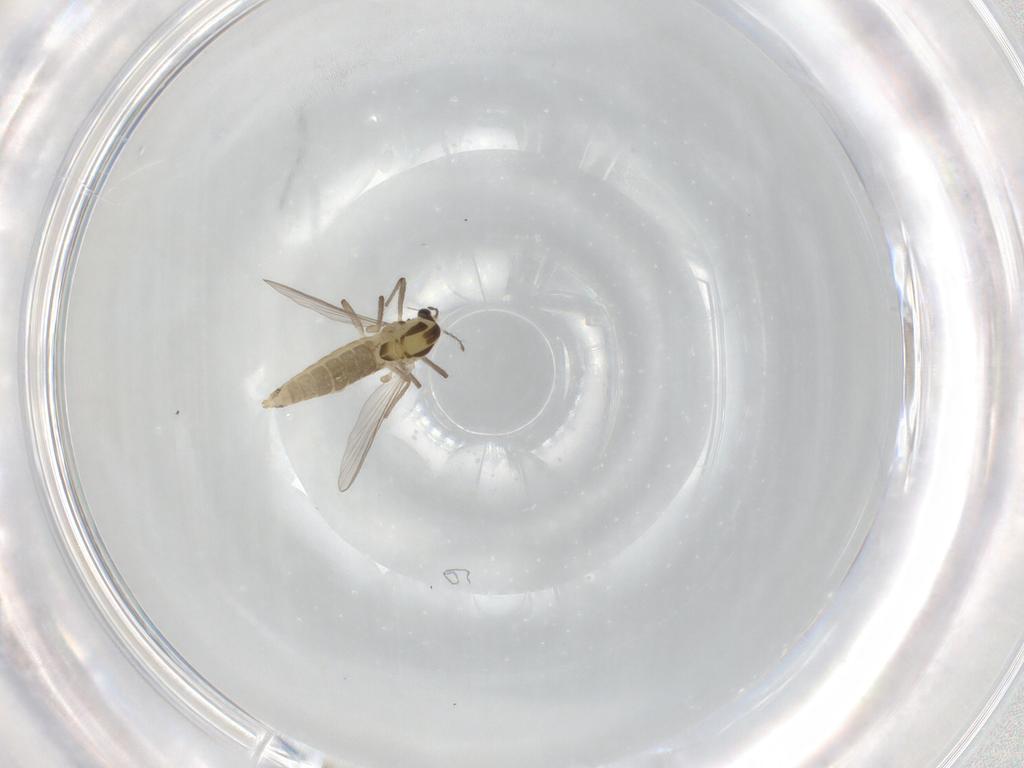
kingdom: Animalia
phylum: Arthropoda
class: Insecta
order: Diptera
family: Chironomidae
